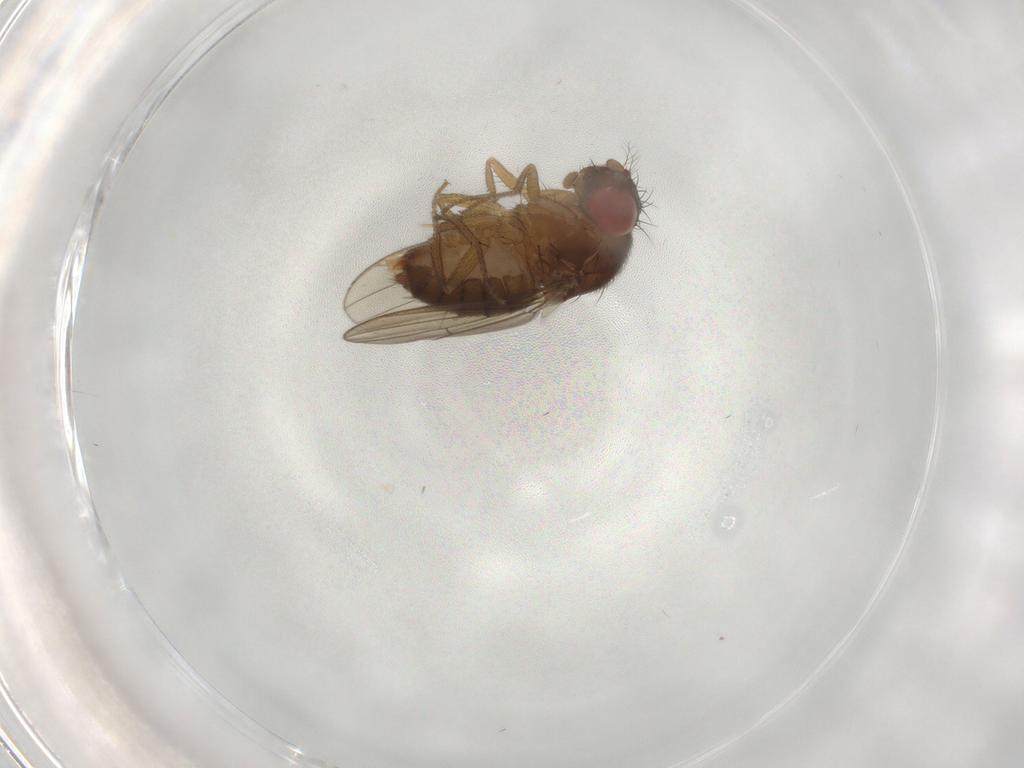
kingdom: Animalia
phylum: Arthropoda
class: Insecta
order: Diptera
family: Drosophilidae
